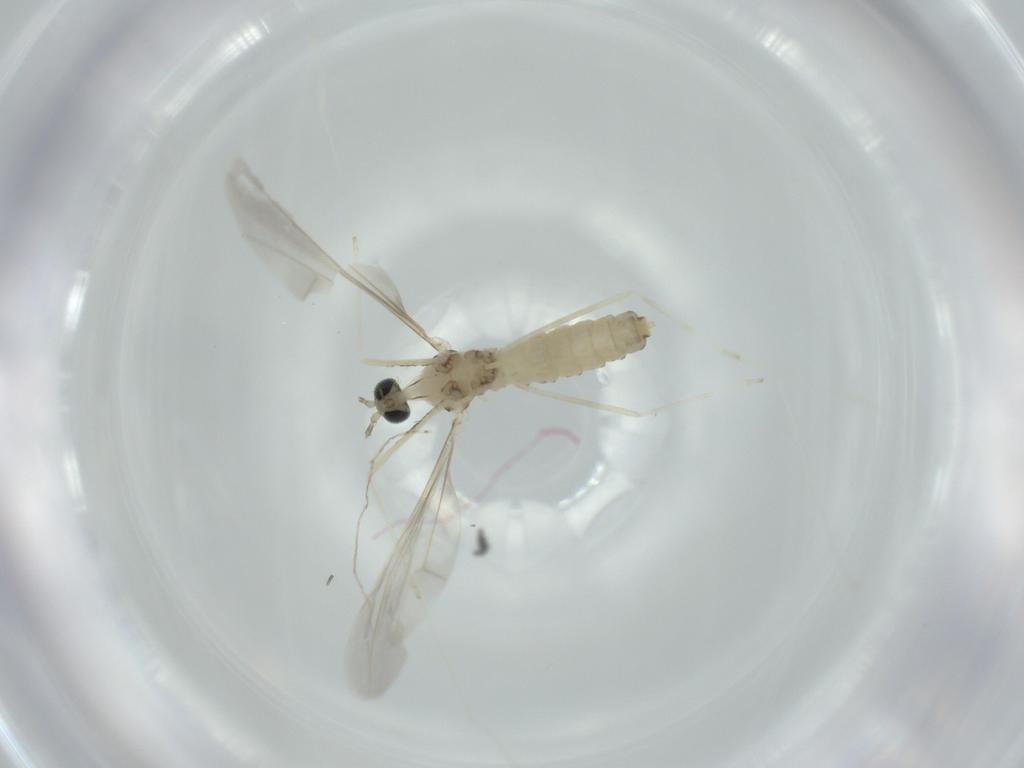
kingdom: Animalia
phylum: Arthropoda
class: Insecta
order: Diptera
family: Cecidomyiidae
